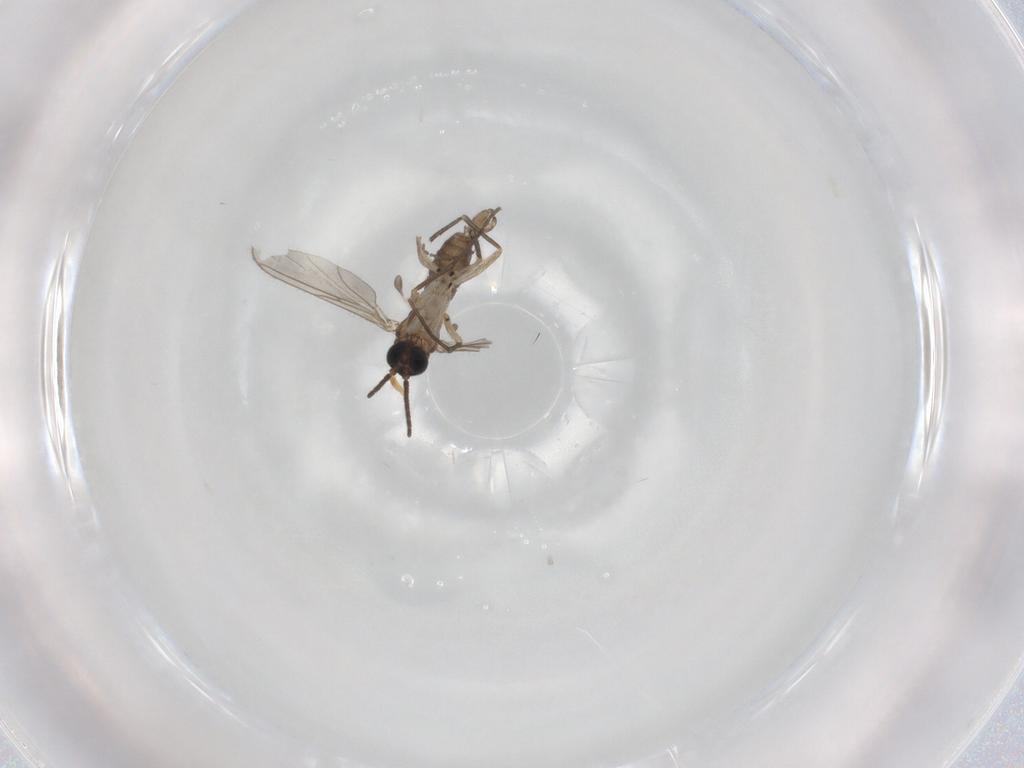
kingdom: Animalia
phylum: Arthropoda
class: Insecta
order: Diptera
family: Sciaridae
